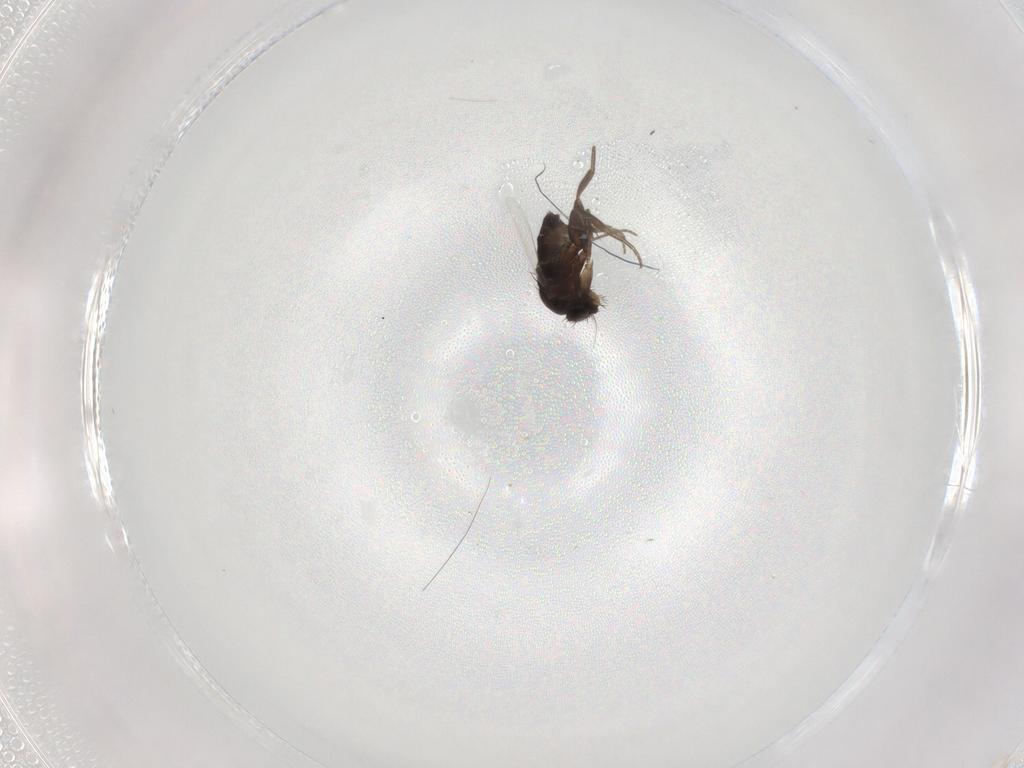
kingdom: Animalia
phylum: Arthropoda
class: Insecta
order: Diptera
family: Phoridae
